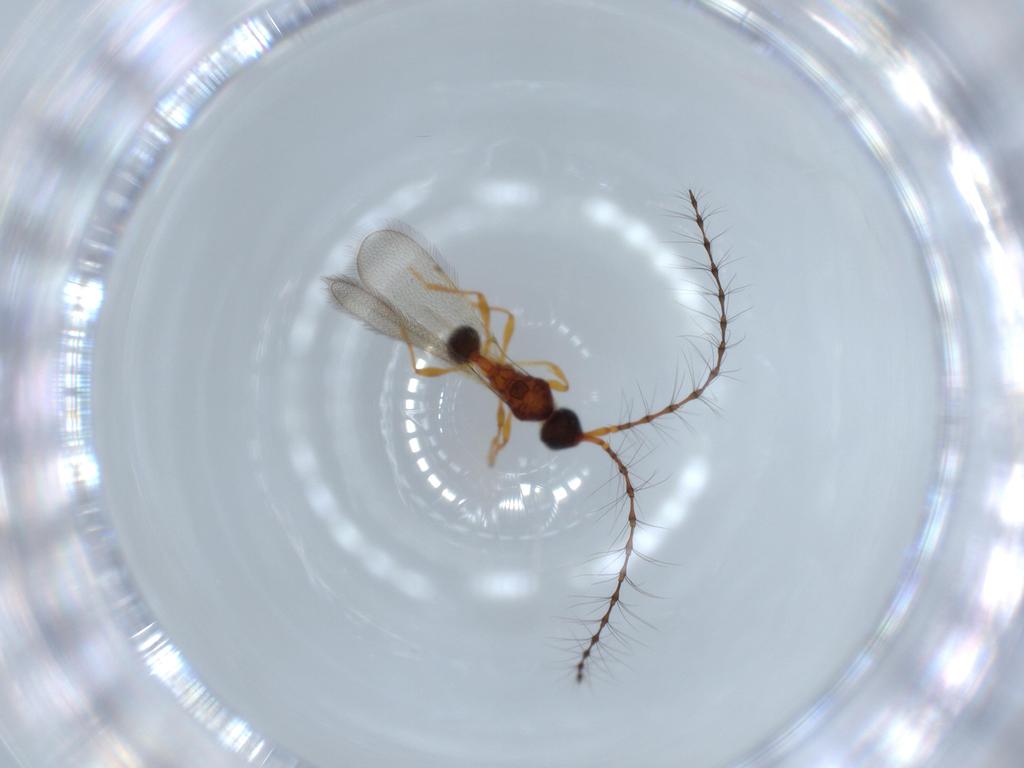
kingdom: Animalia
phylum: Arthropoda
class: Insecta
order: Hymenoptera
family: Diapriidae
